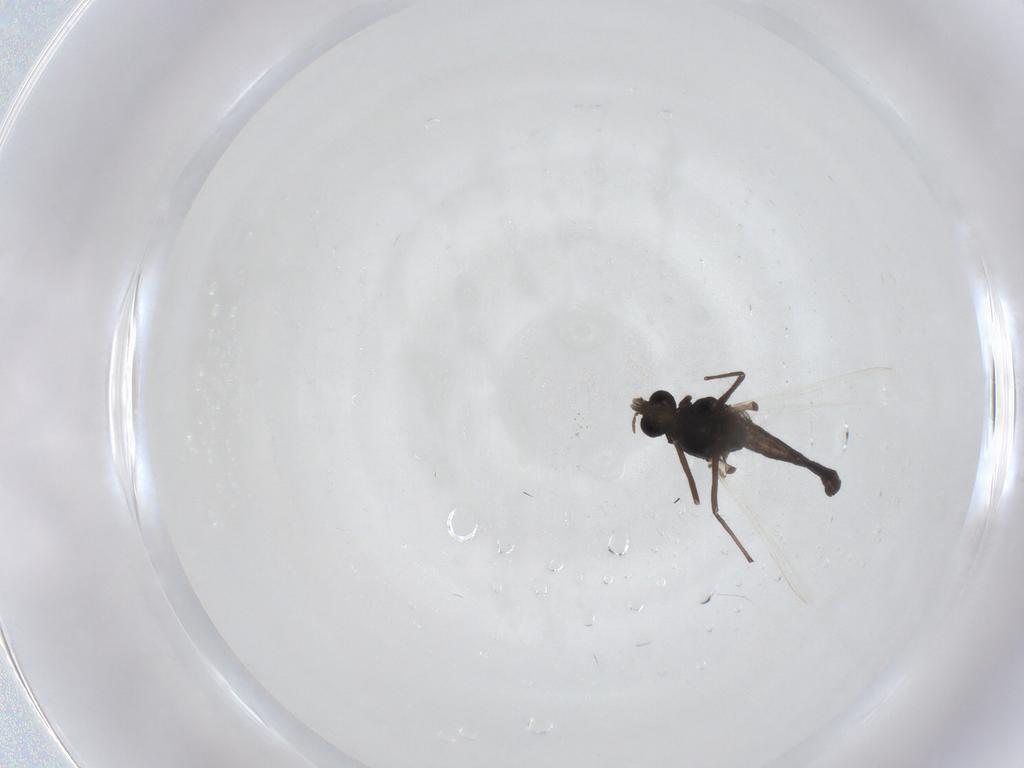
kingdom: Animalia
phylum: Arthropoda
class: Insecta
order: Diptera
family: Chironomidae
